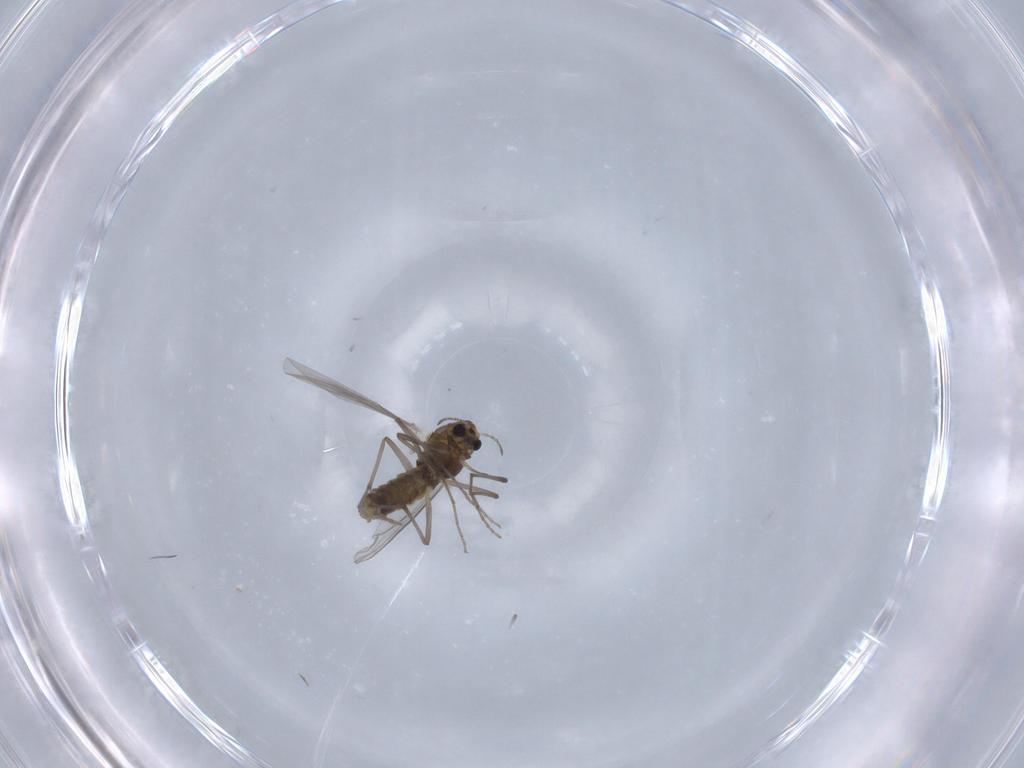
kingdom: Animalia
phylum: Arthropoda
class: Insecta
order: Diptera
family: Chironomidae
